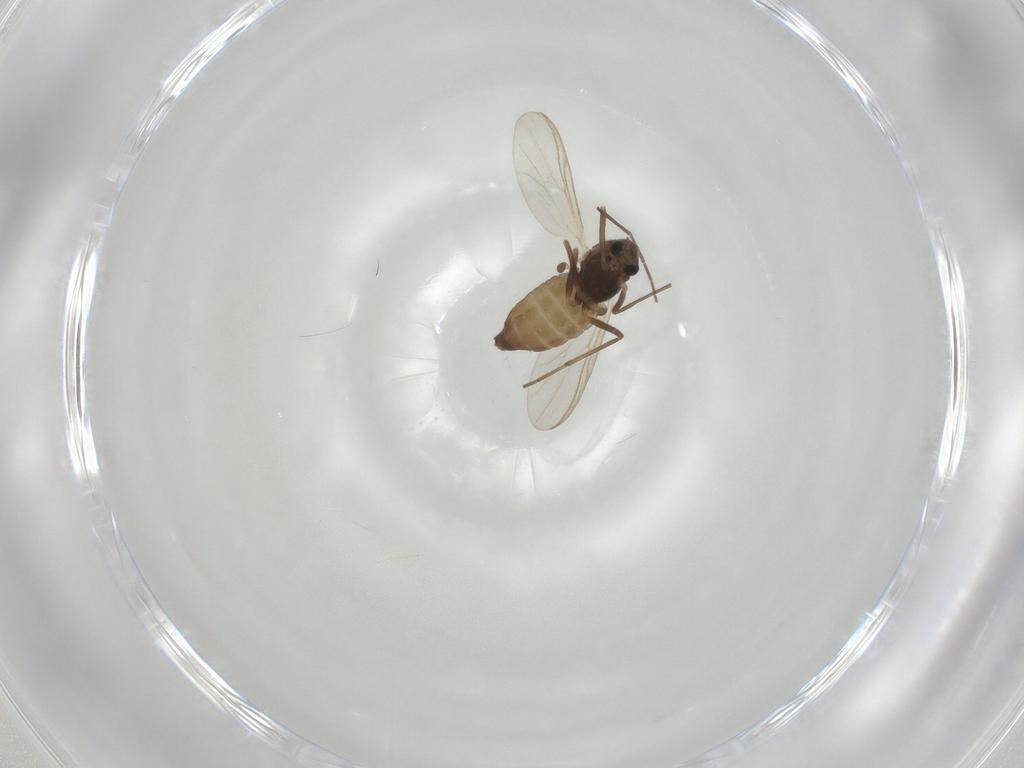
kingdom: Animalia
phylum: Arthropoda
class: Insecta
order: Diptera
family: Chironomidae
